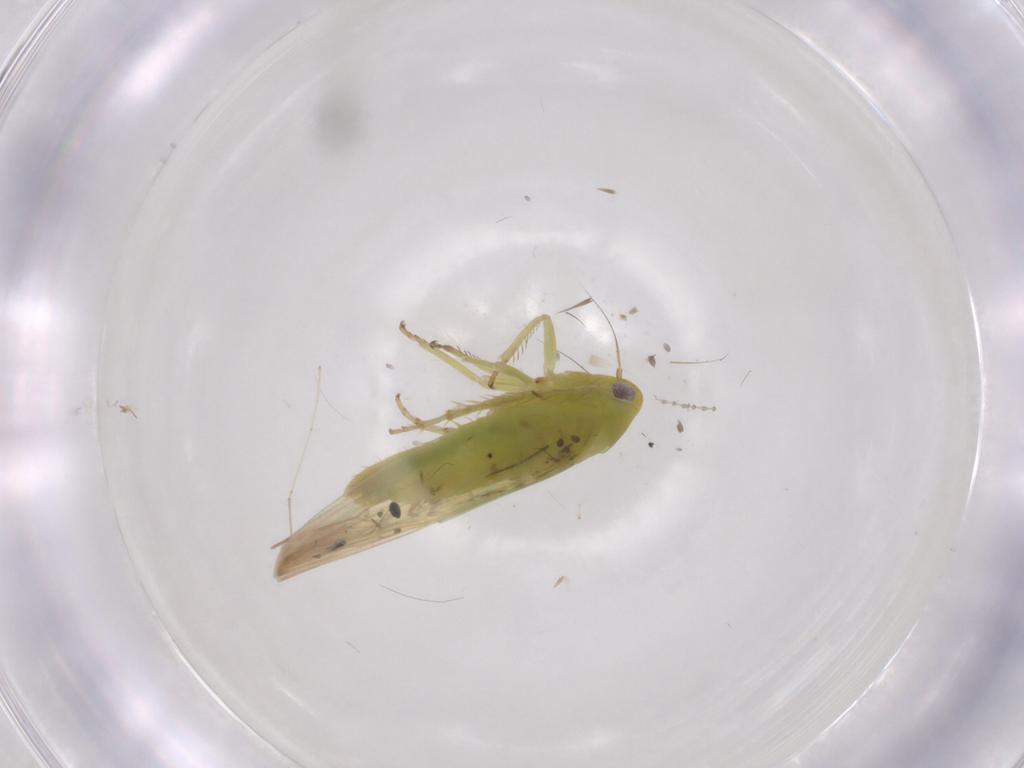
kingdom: Animalia
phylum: Arthropoda
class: Insecta
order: Hemiptera
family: Cicadellidae
